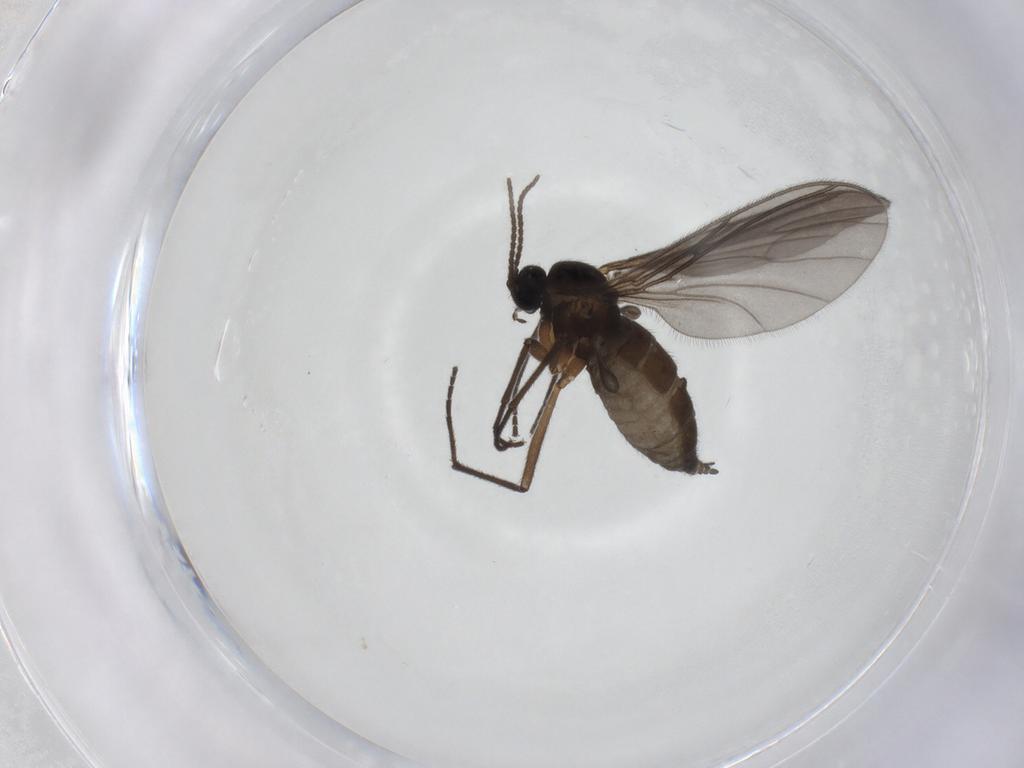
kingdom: Animalia
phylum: Arthropoda
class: Insecta
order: Diptera
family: Sciaridae
